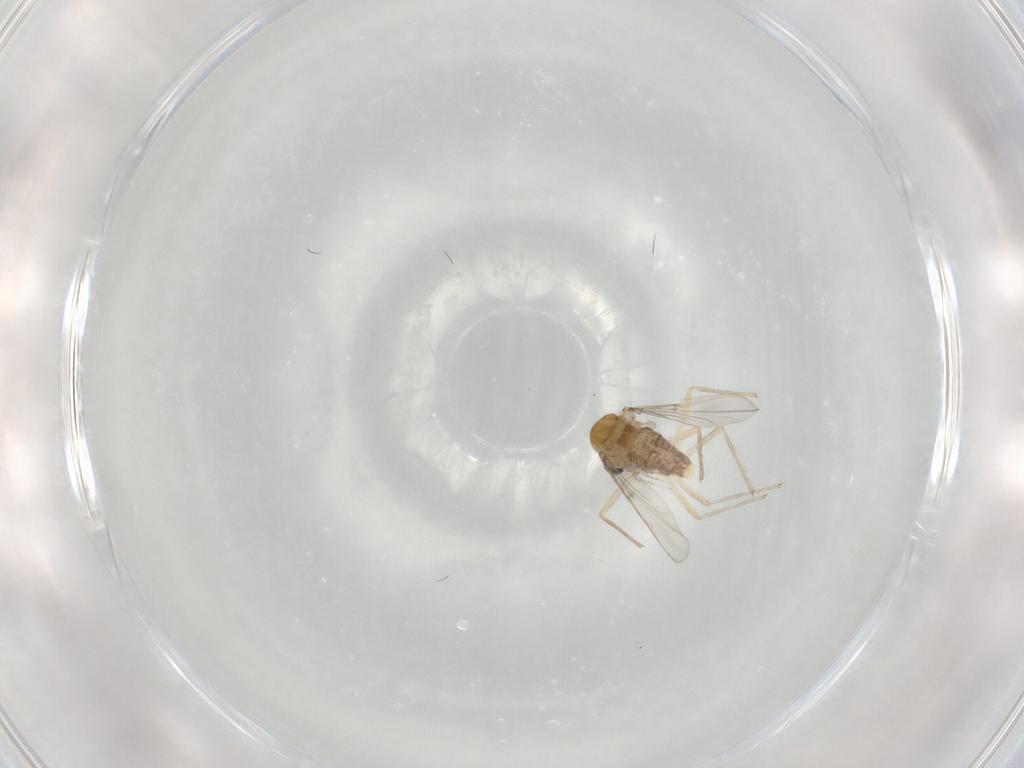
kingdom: Animalia
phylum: Arthropoda
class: Insecta
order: Diptera
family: Chironomidae
